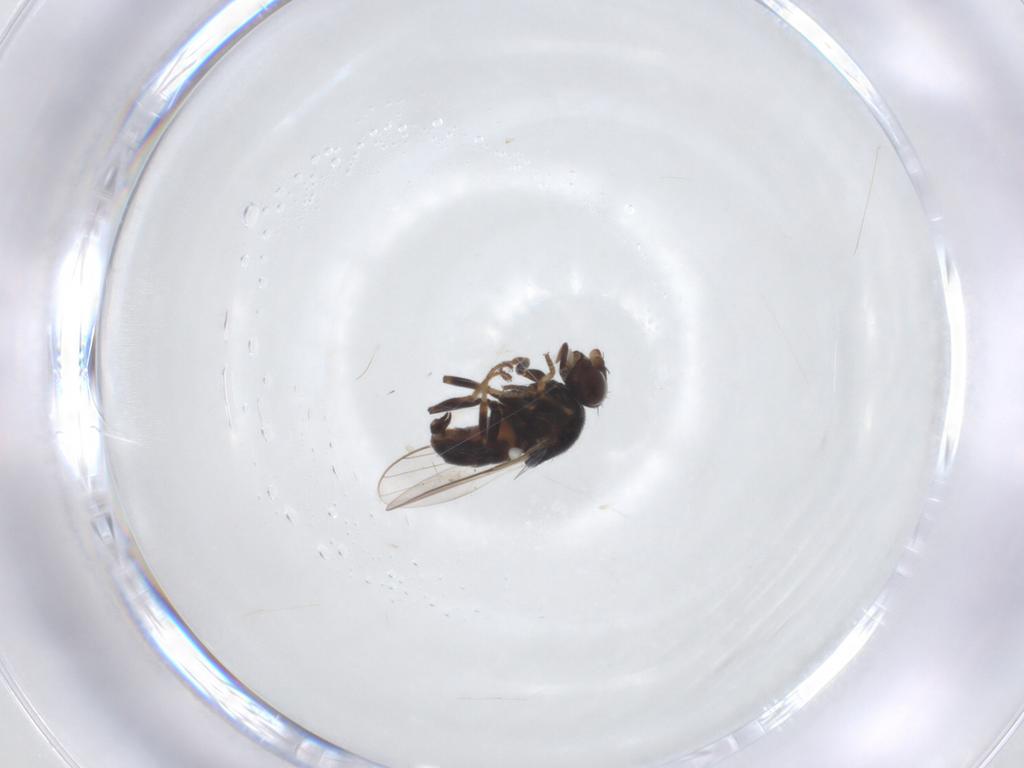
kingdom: Animalia
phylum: Arthropoda
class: Insecta
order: Diptera
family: Chloropidae
